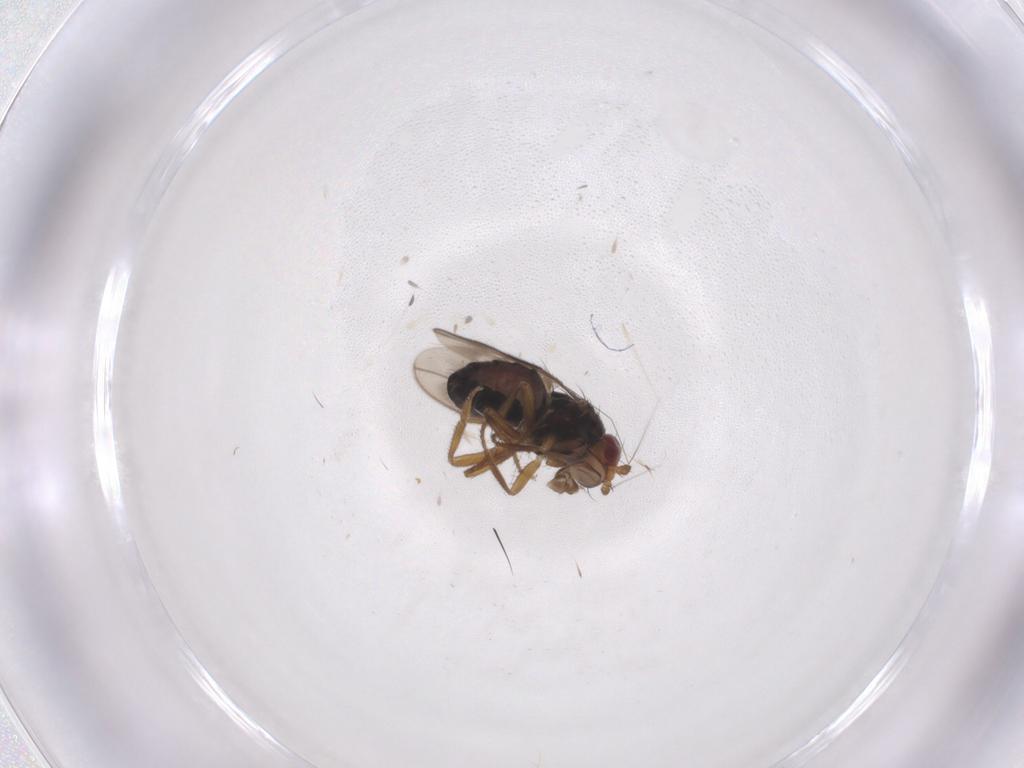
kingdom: Animalia
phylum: Arthropoda
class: Insecta
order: Diptera
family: Sphaeroceridae
